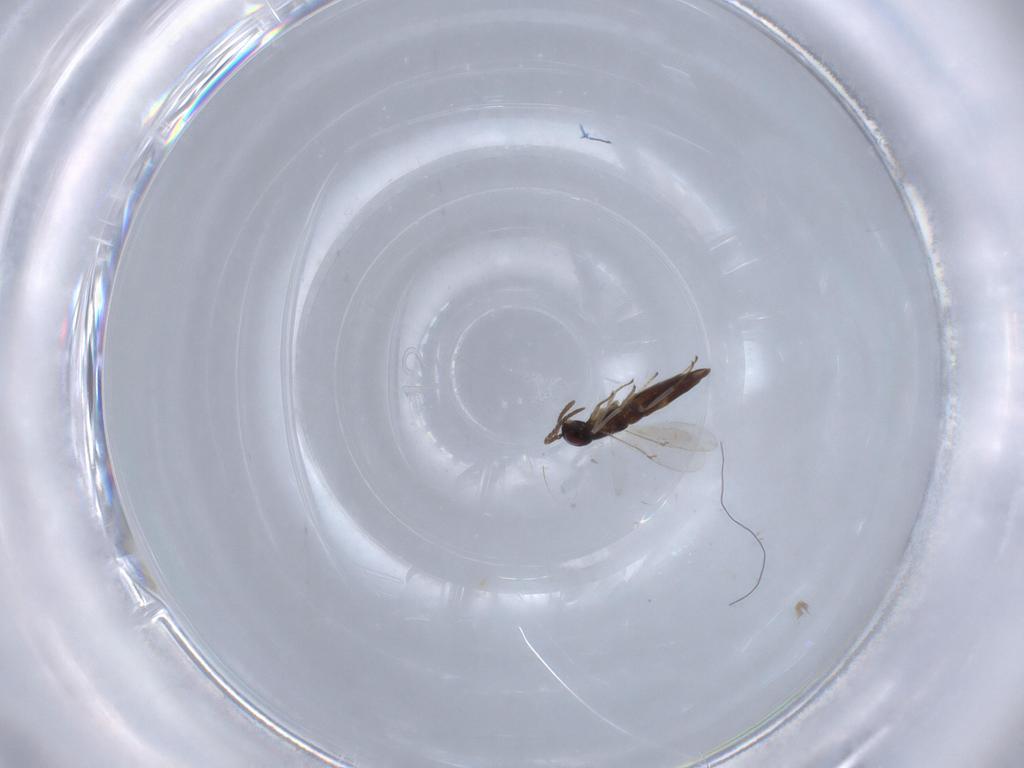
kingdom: Animalia
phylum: Arthropoda
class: Insecta
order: Hymenoptera
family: Encyrtidae
